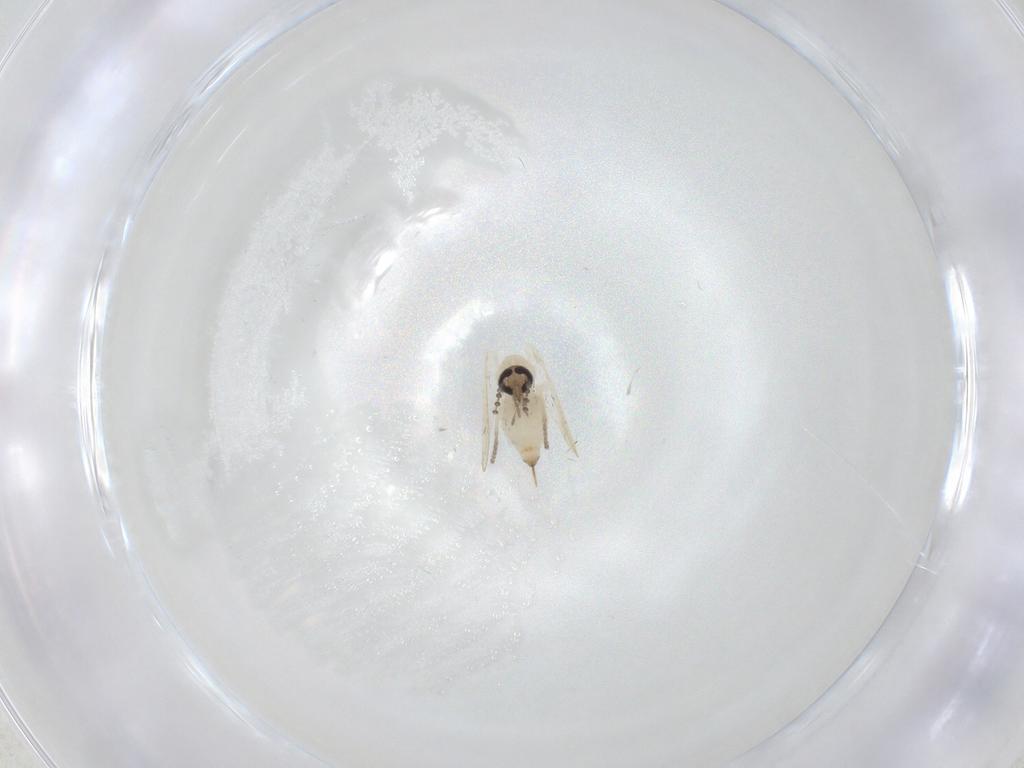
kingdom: Animalia
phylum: Arthropoda
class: Insecta
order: Diptera
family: Psychodidae
